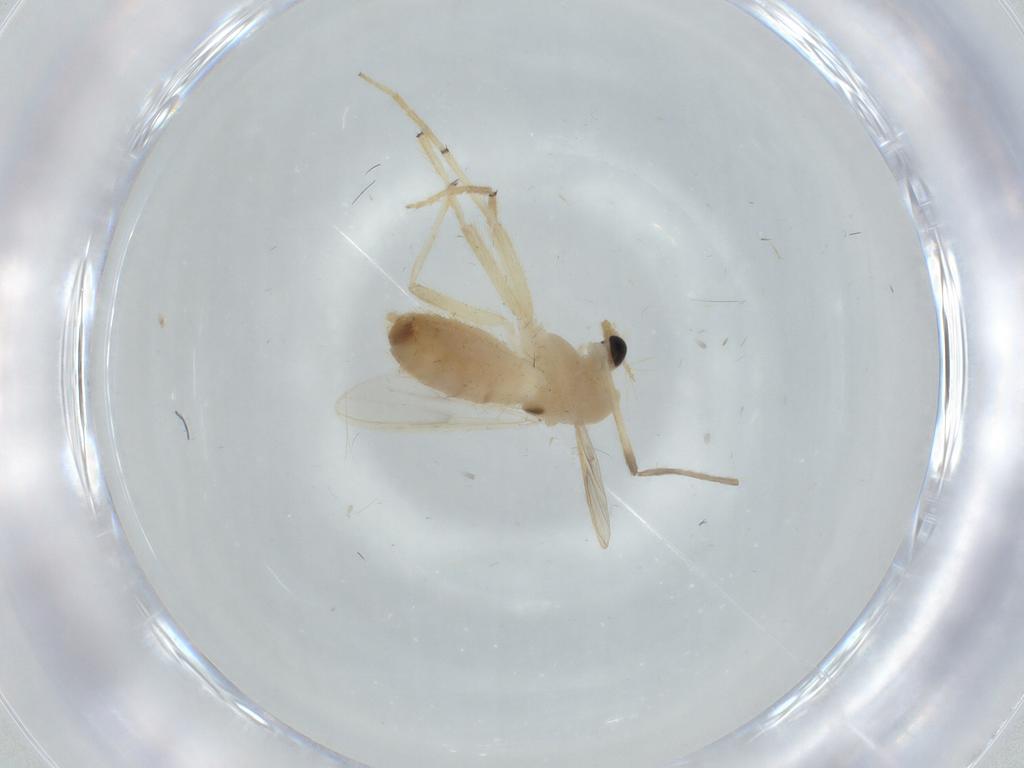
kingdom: Animalia
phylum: Arthropoda
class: Insecta
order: Diptera
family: Chironomidae
